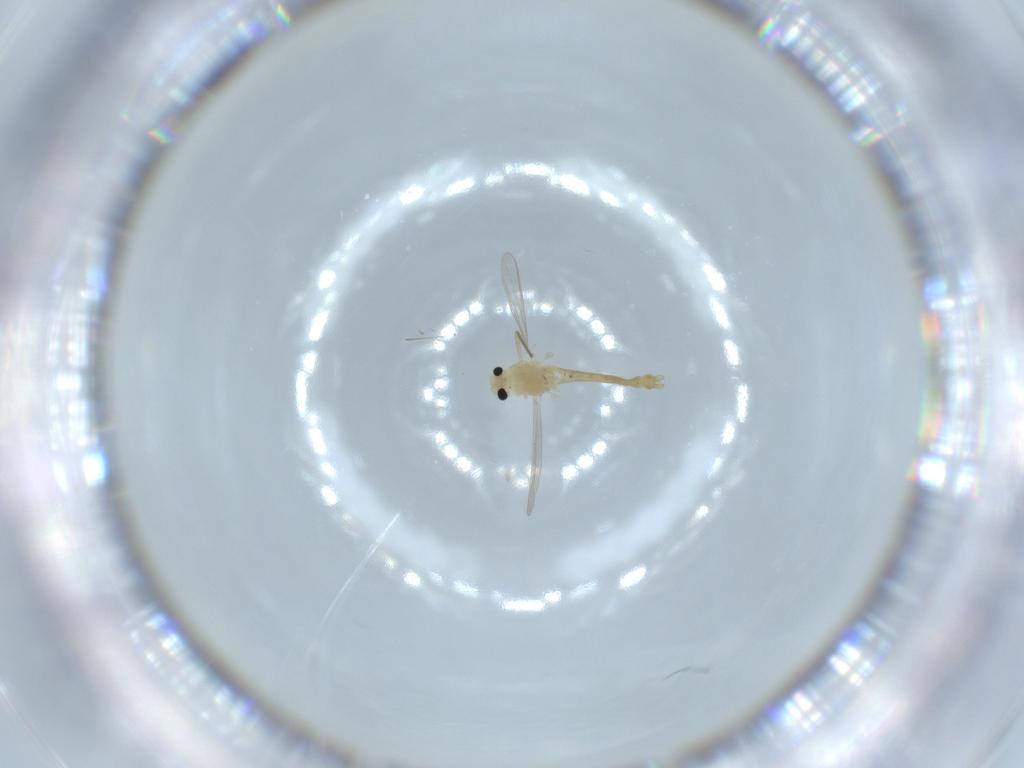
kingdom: Animalia
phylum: Arthropoda
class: Insecta
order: Diptera
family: Chironomidae
